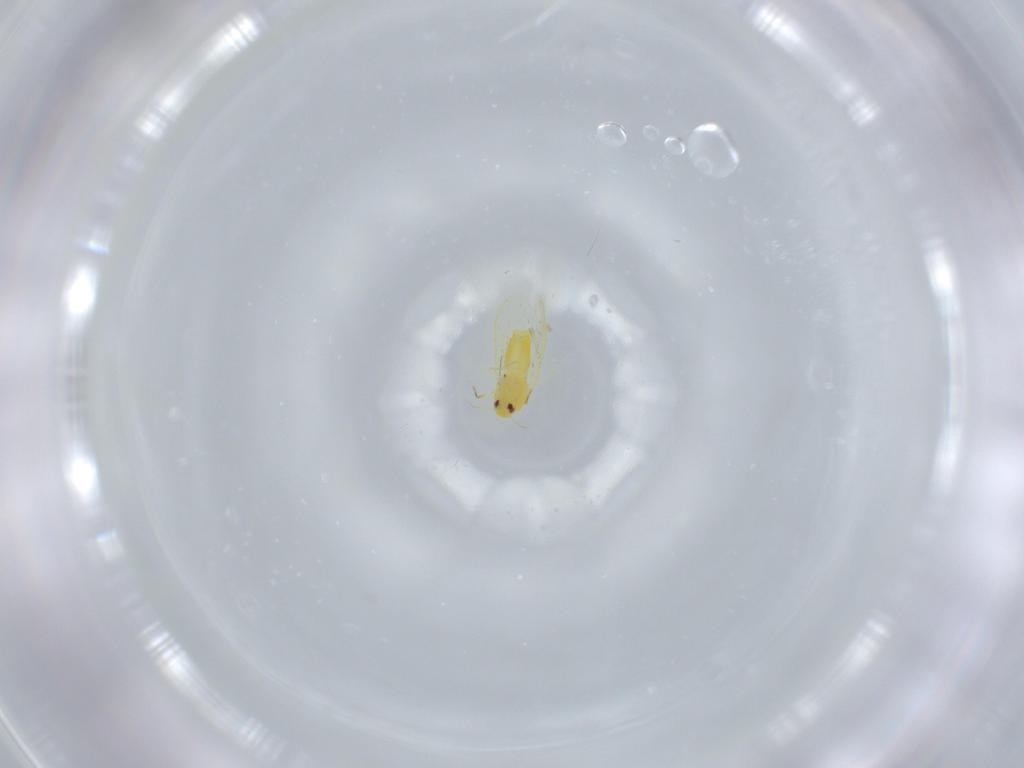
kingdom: Animalia
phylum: Arthropoda
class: Insecta
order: Hemiptera
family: Aleyrodidae
